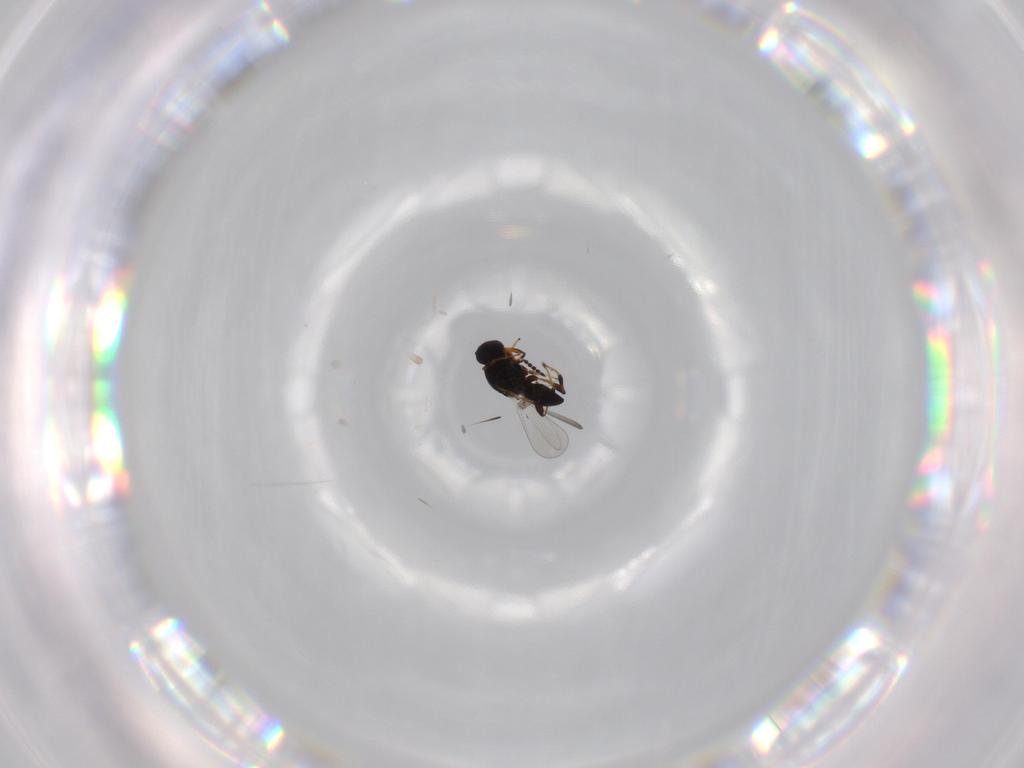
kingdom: Animalia
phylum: Arthropoda
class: Insecta
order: Hymenoptera
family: Platygastridae
